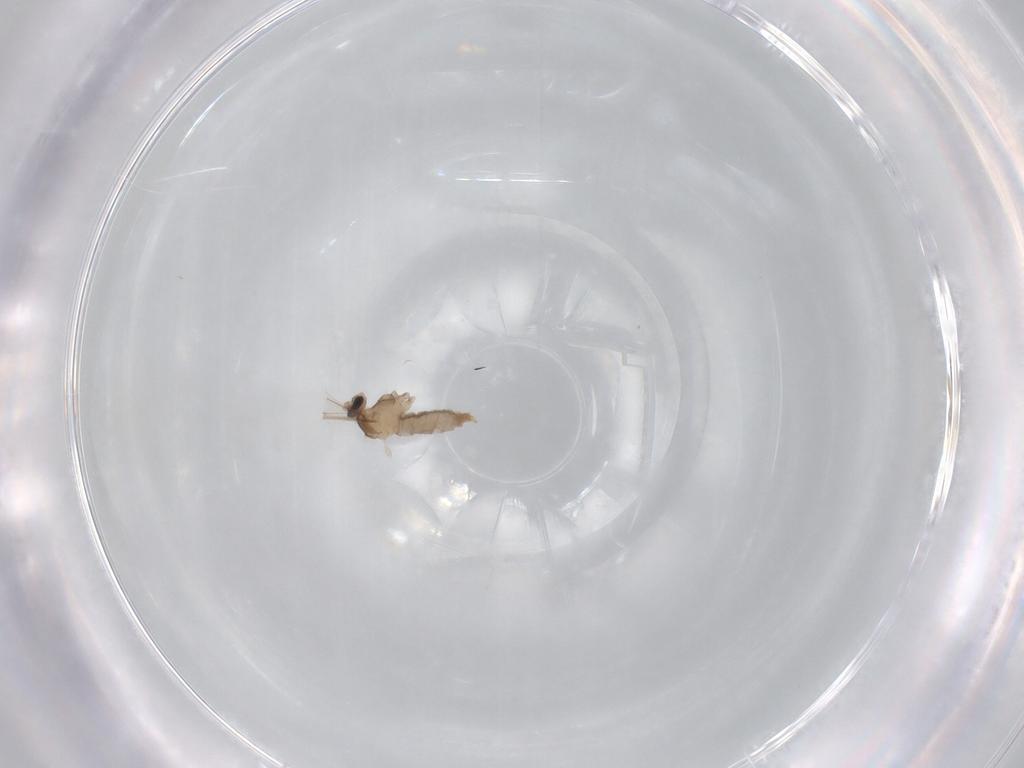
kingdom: Animalia
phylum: Arthropoda
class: Insecta
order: Diptera
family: Cecidomyiidae
